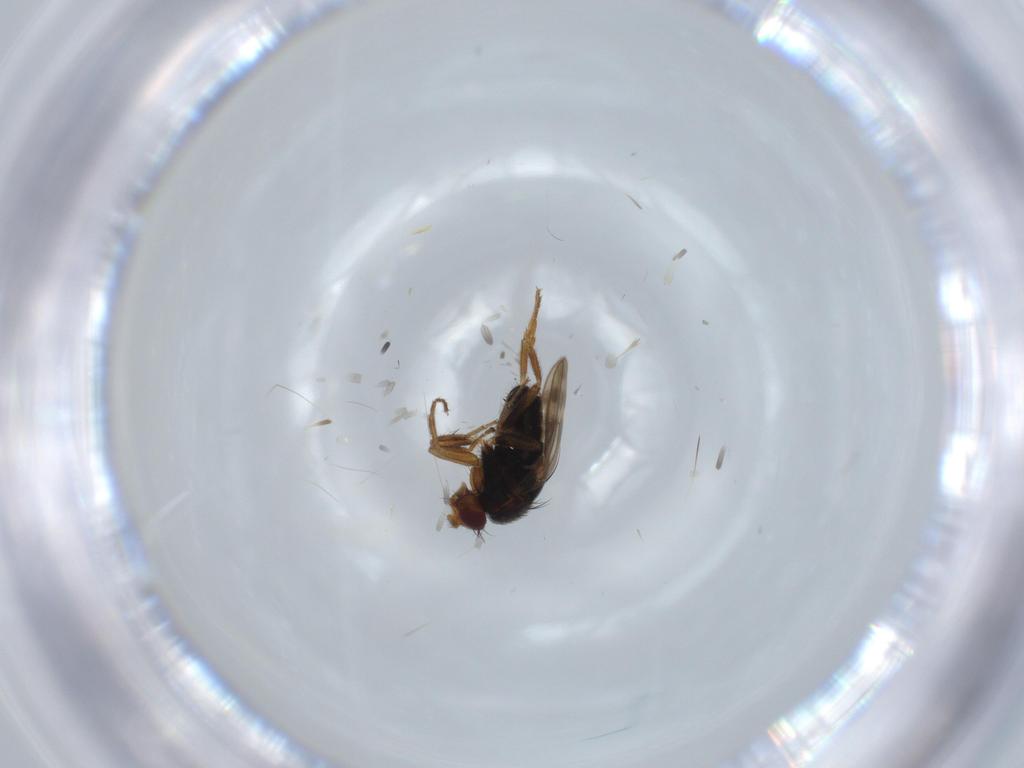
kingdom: Animalia
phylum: Arthropoda
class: Insecta
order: Diptera
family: Sphaeroceridae
